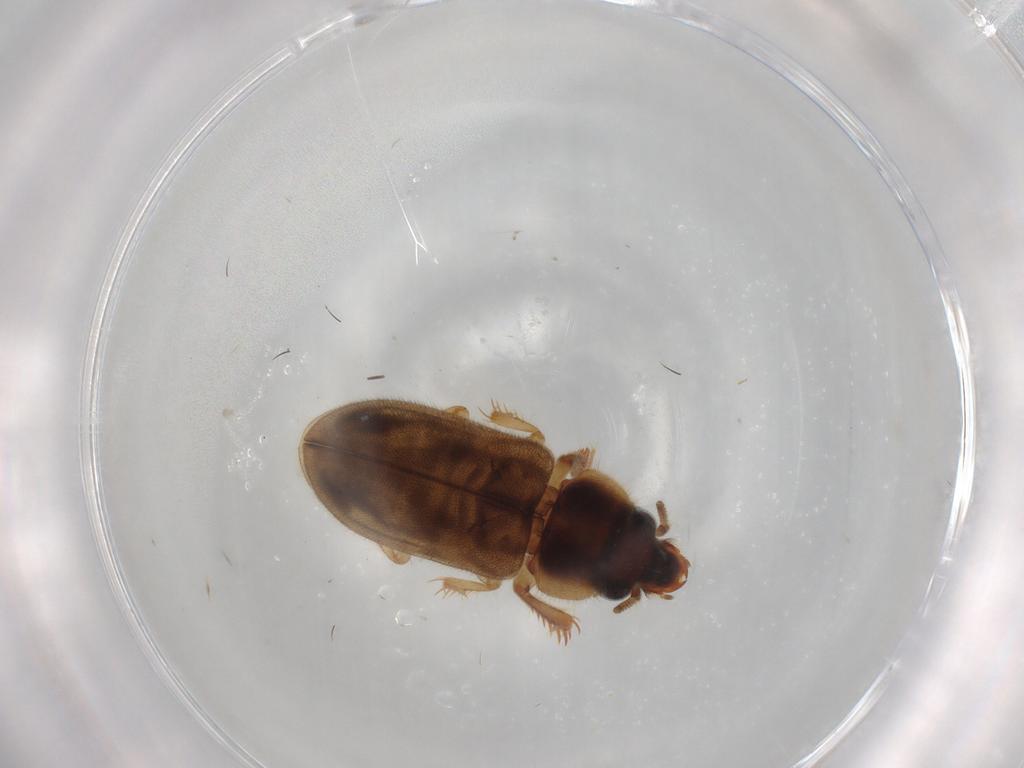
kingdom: Animalia
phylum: Arthropoda
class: Insecta
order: Coleoptera
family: Heteroceridae
